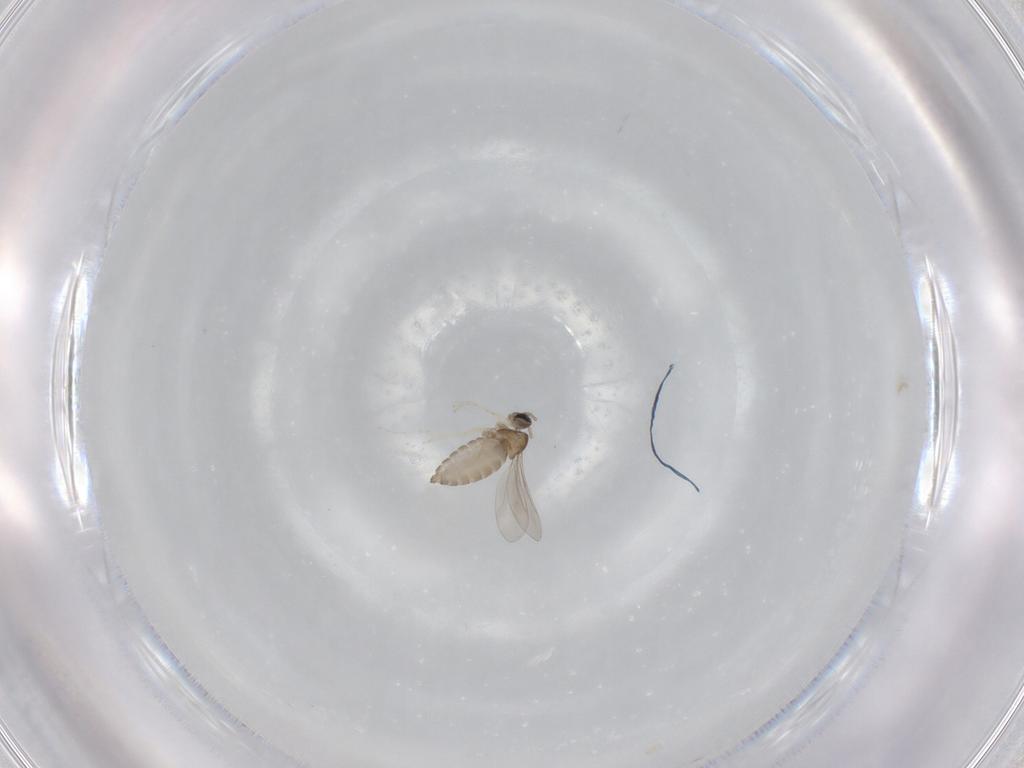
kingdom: Animalia
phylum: Arthropoda
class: Insecta
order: Diptera
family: Cecidomyiidae
